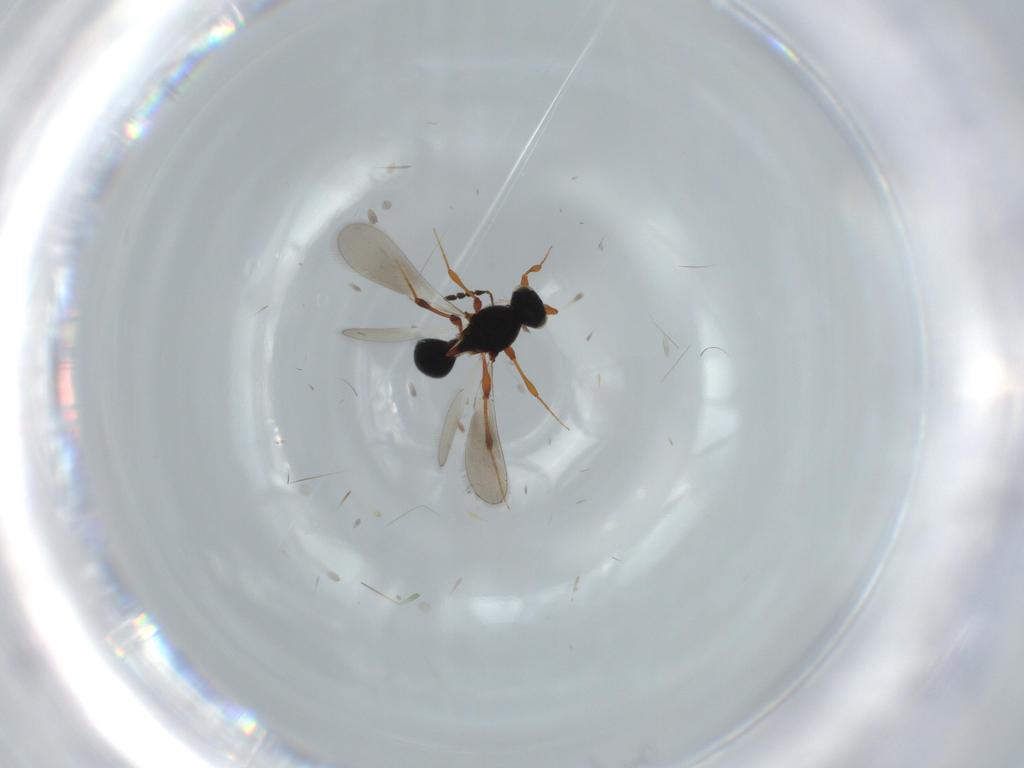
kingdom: Animalia
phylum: Arthropoda
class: Insecta
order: Hymenoptera
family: Platygastridae
